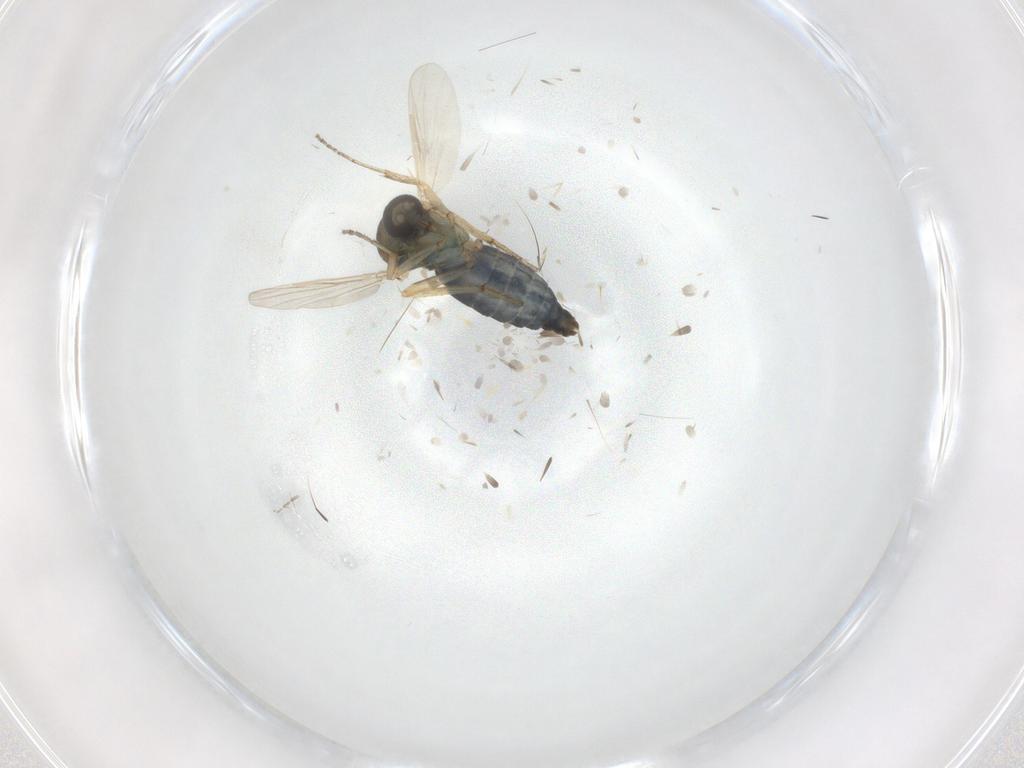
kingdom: Animalia
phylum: Arthropoda
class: Insecta
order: Diptera
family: Ceratopogonidae
